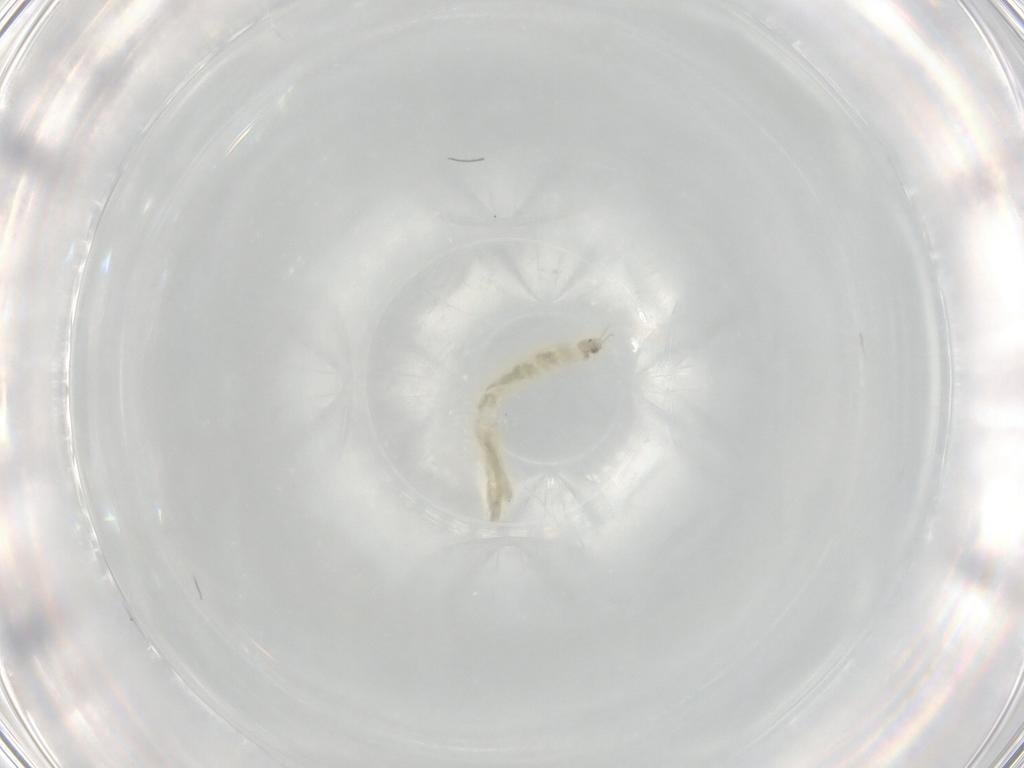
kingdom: Animalia
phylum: Arthropoda
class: Insecta
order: Diptera
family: Chironomidae
